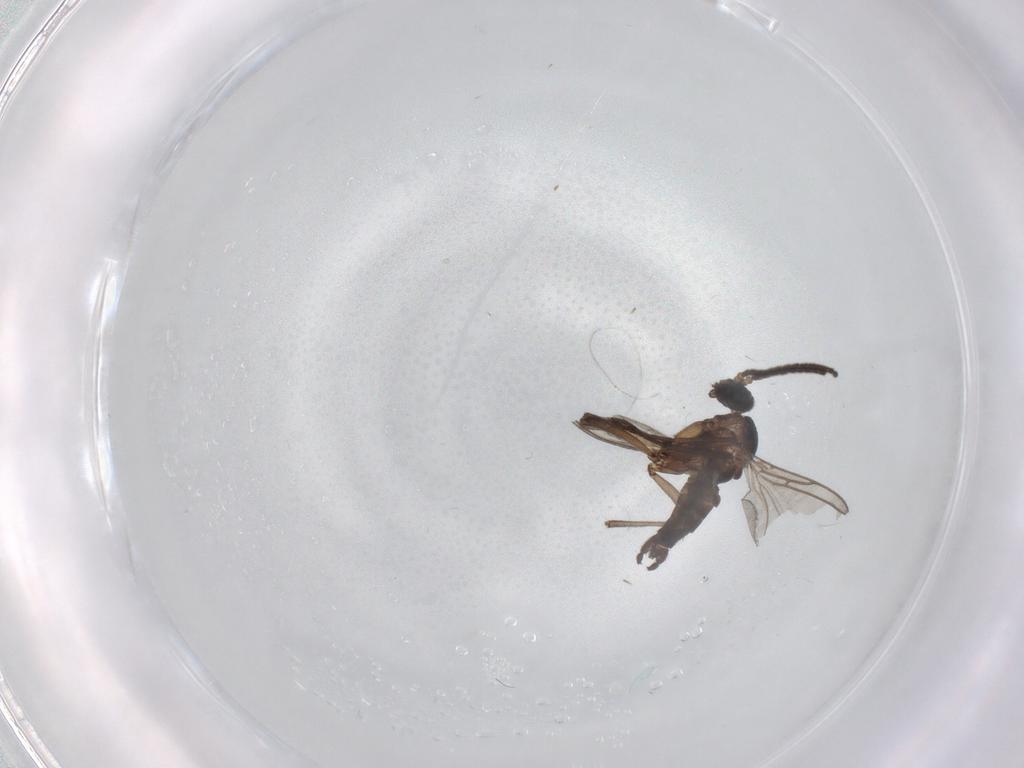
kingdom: Animalia
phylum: Arthropoda
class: Insecta
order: Diptera
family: Sciaridae
